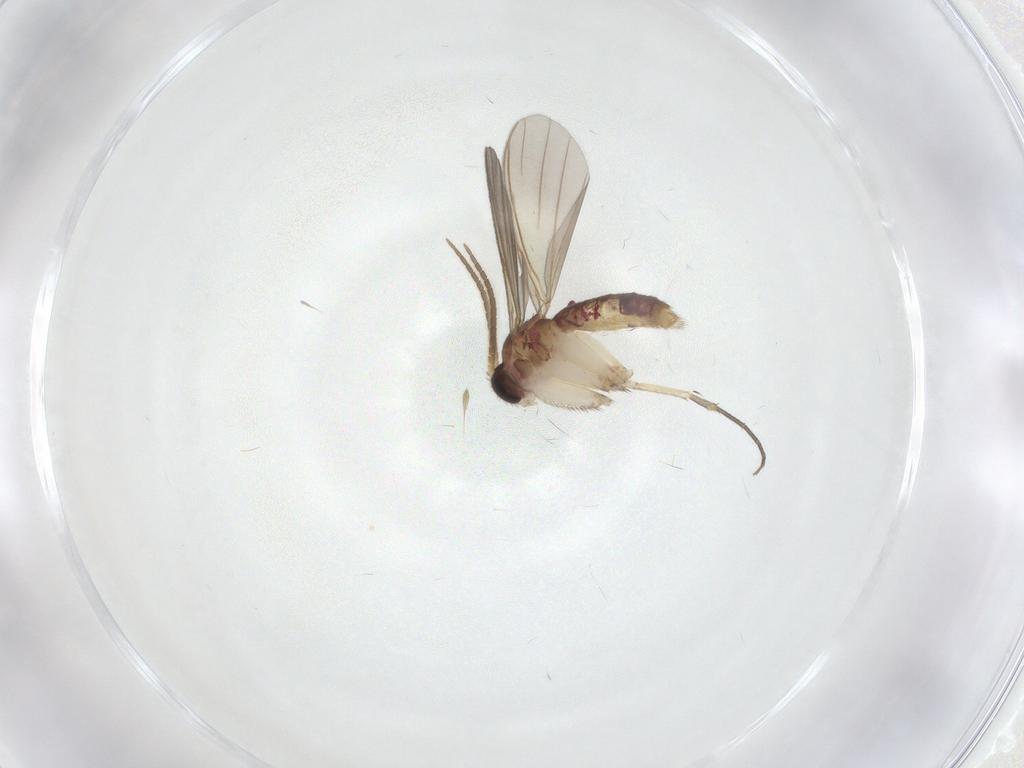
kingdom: Animalia
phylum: Arthropoda
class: Insecta
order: Diptera
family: Mycetophilidae
